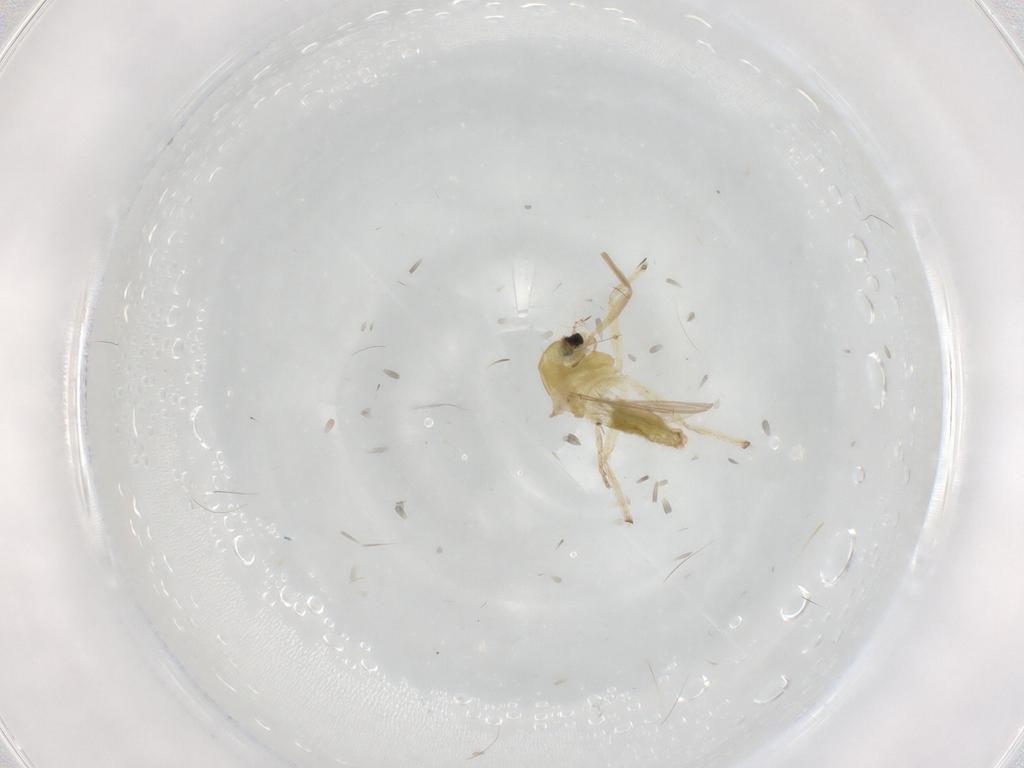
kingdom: Animalia
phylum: Arthropoda
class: Insecta
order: Diptera
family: Chironomidae
